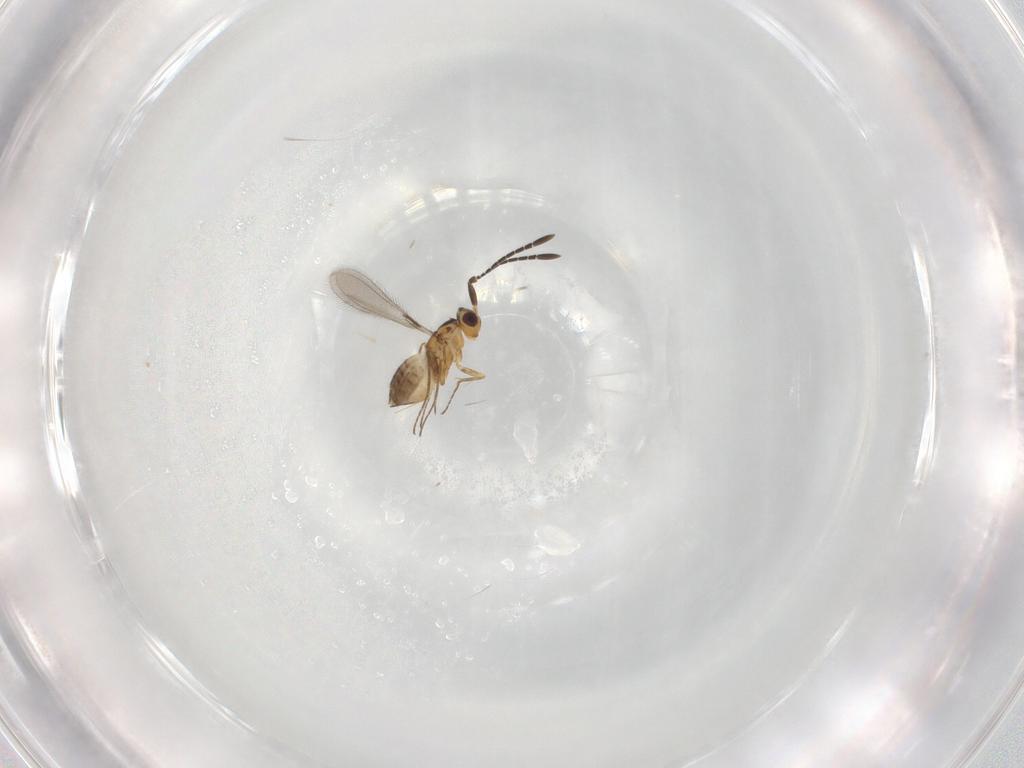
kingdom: Animalia
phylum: Arthropoda
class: Insecta
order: Hymenoptera
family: Mymaridae
